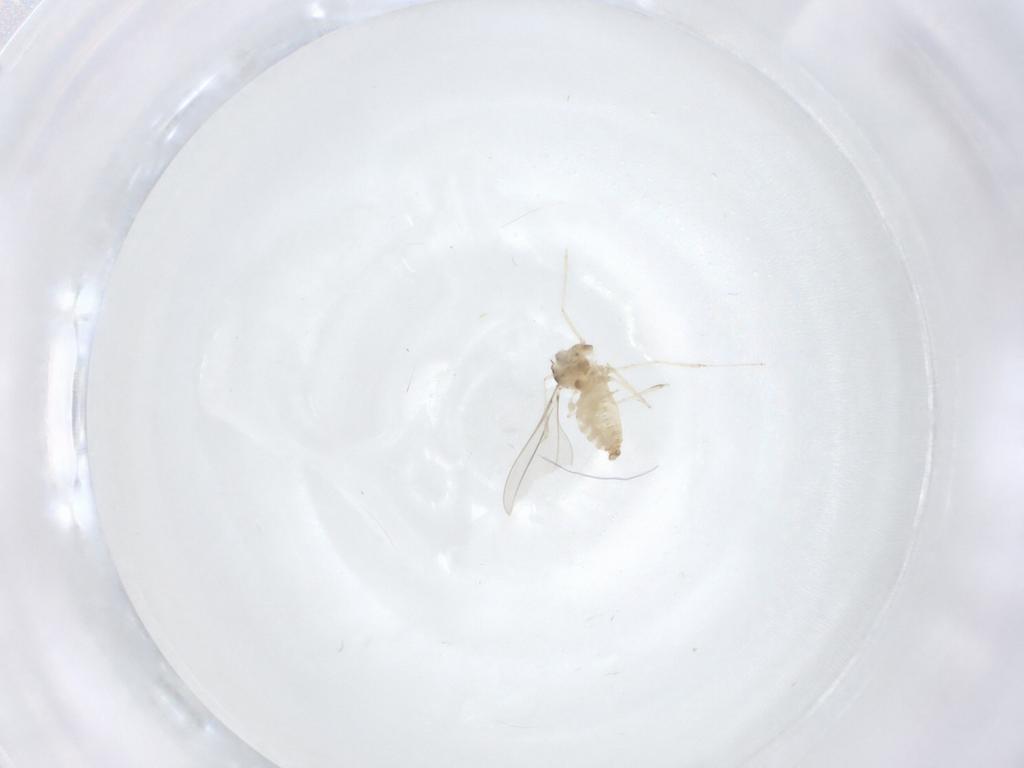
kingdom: Animalia
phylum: Arthropoda
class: Insecta
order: Diptera
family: Cecidomyiidae
